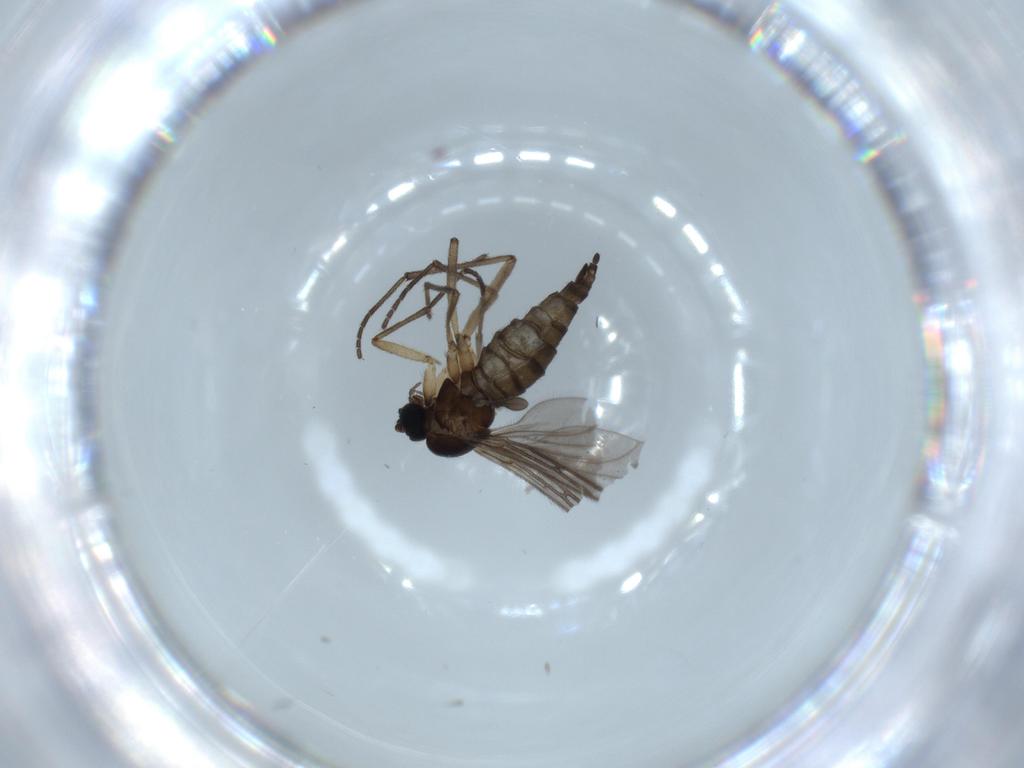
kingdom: Animalia
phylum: Arthropoda
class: Insecta
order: Diptera
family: Sciaridae
